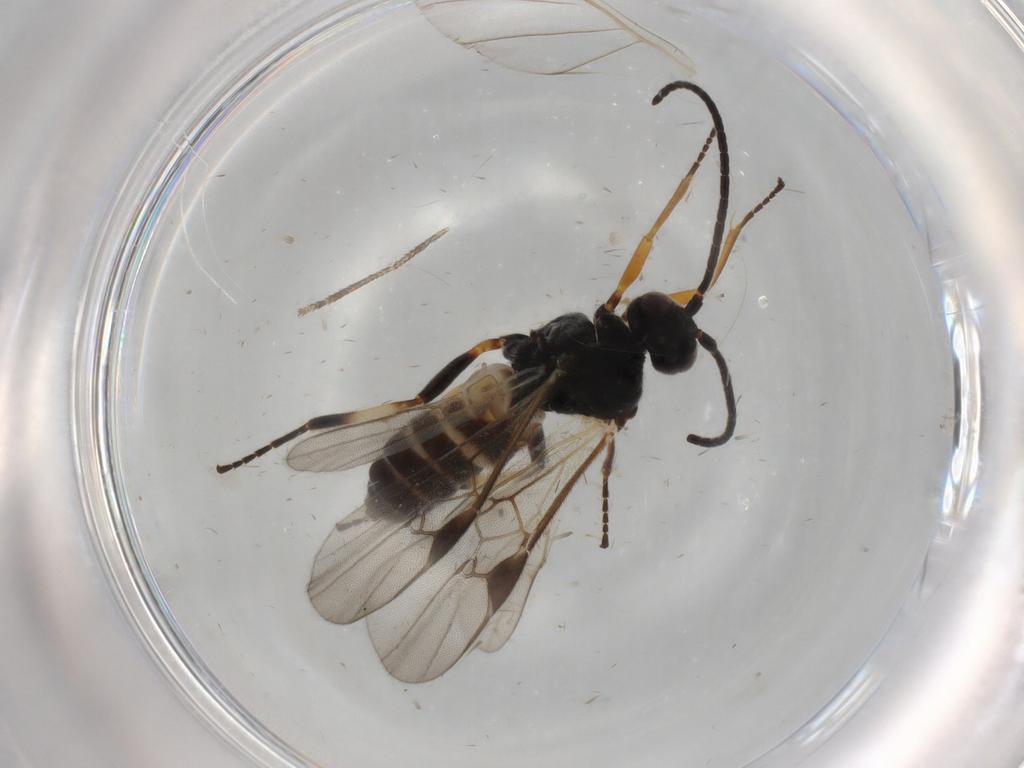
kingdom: Animalia
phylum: Arthropoda
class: Insecta
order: Hymenoptera
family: Braconidae
